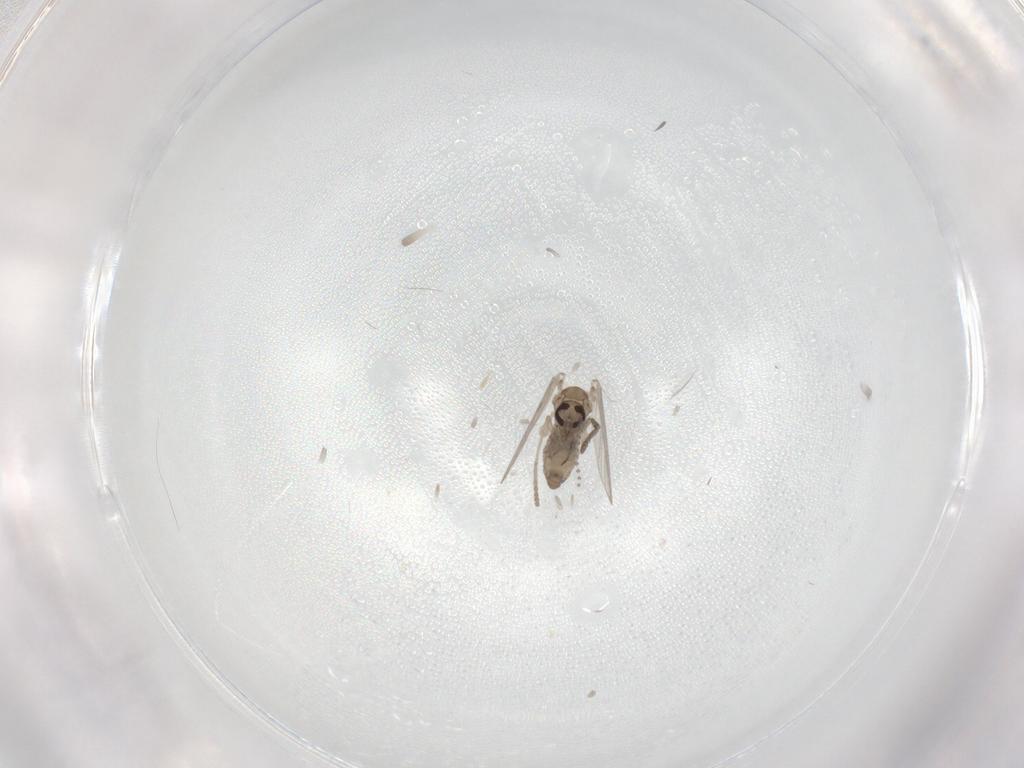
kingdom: Animalia
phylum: Arthropoda
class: Insecta
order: Diptera
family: Psychodidae
